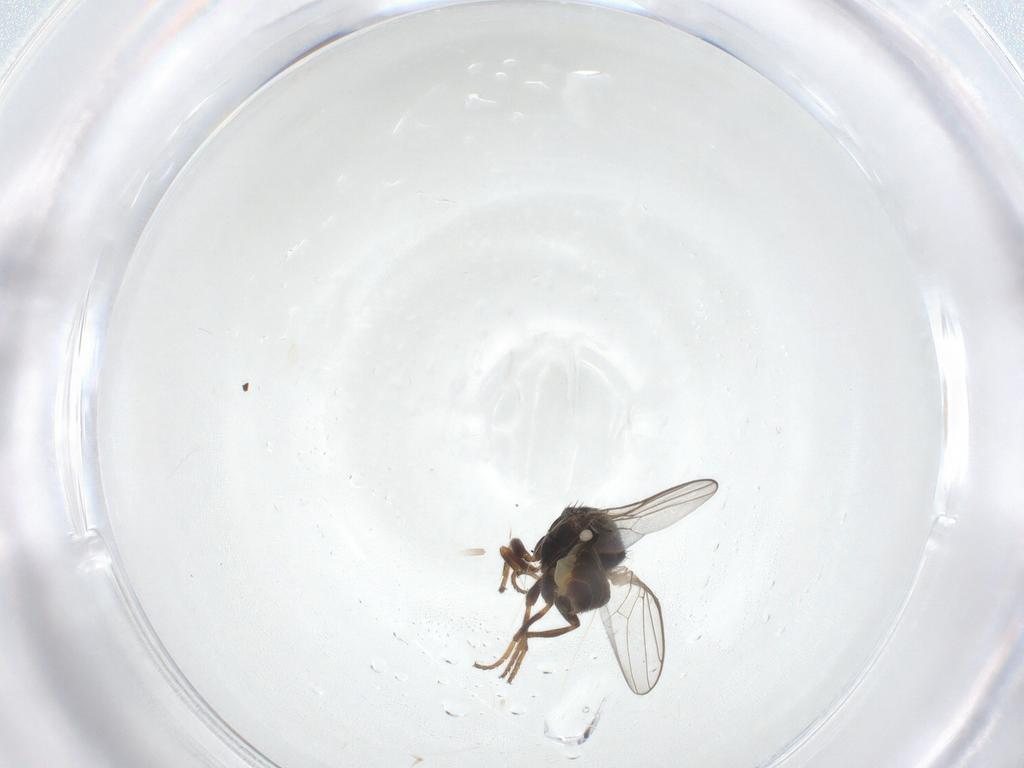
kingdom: Animalia
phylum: Arthropoda
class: Insecta
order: Diptera
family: Chloropidae
